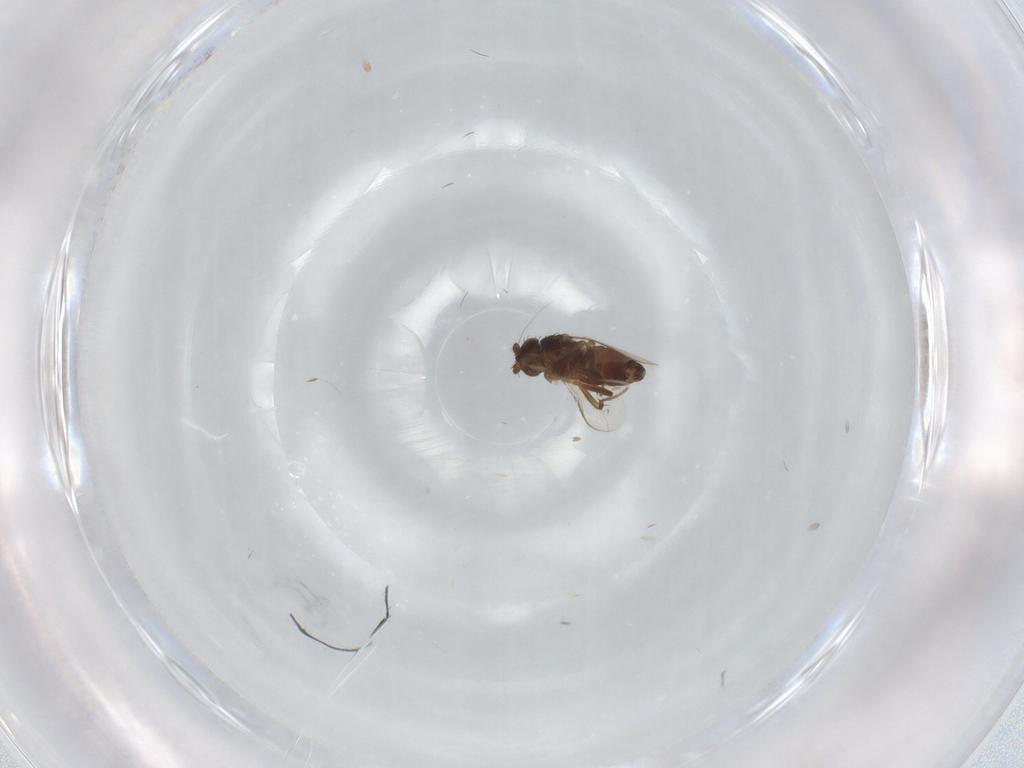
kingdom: Animalia
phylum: Arthropoda
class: Insecta
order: Diptera
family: Sphaeroceridae
